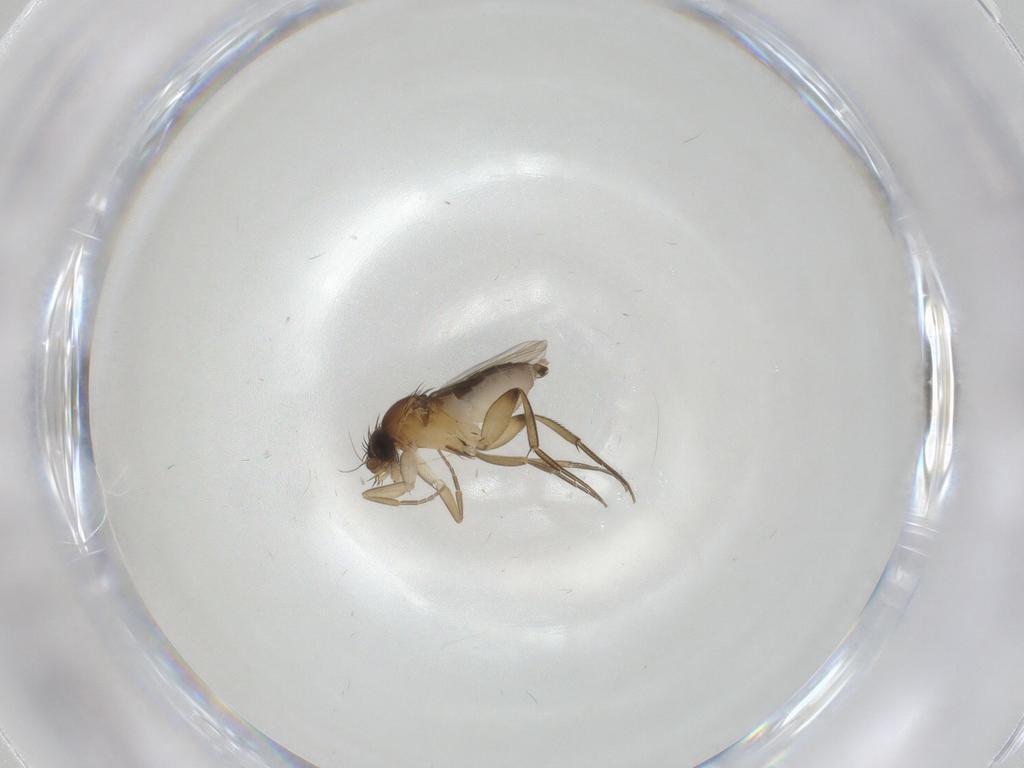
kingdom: Animalia
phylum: Arthropoda
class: Insecta
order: Diptera
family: Phoridae
